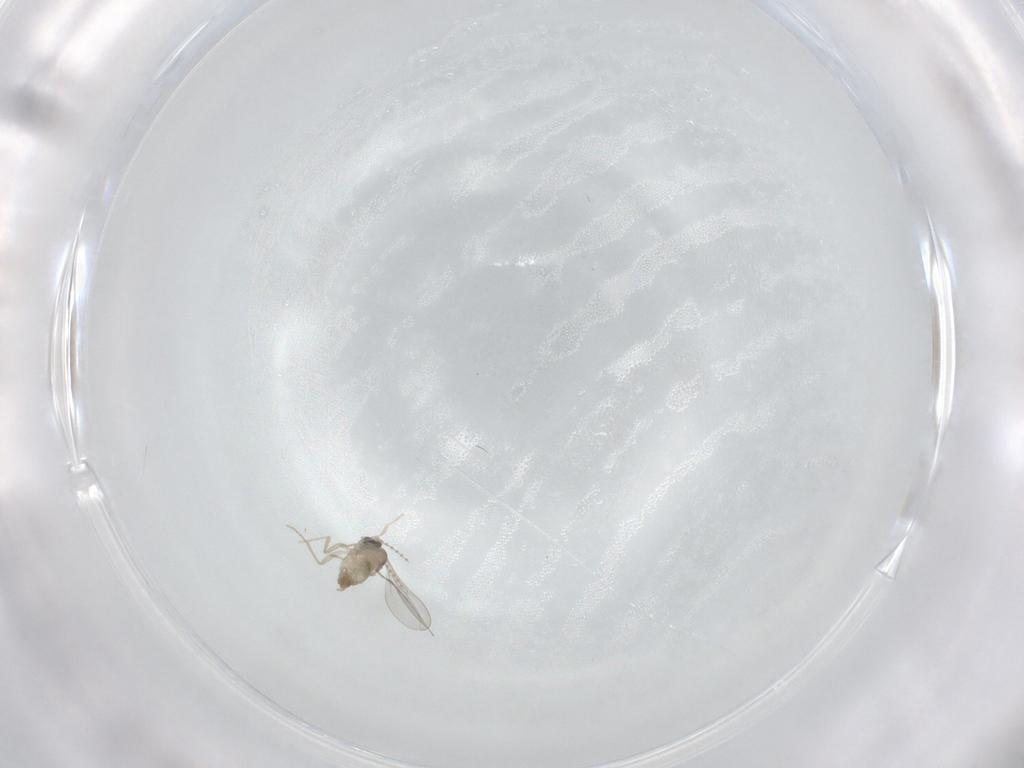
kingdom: Animalia
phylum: Arthropoda
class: Insecta
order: Diptera
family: Cecidomyiidae
